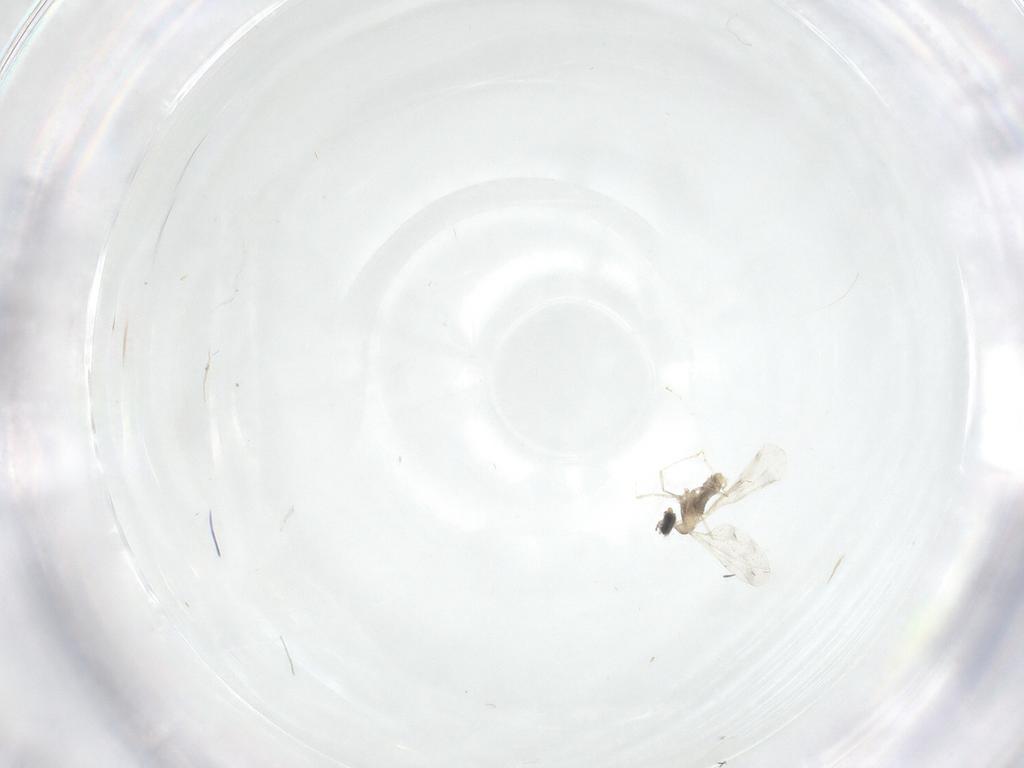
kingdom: Animalia
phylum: Arthropoda
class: Insecta
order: Diptera
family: Cecidomyiidae
